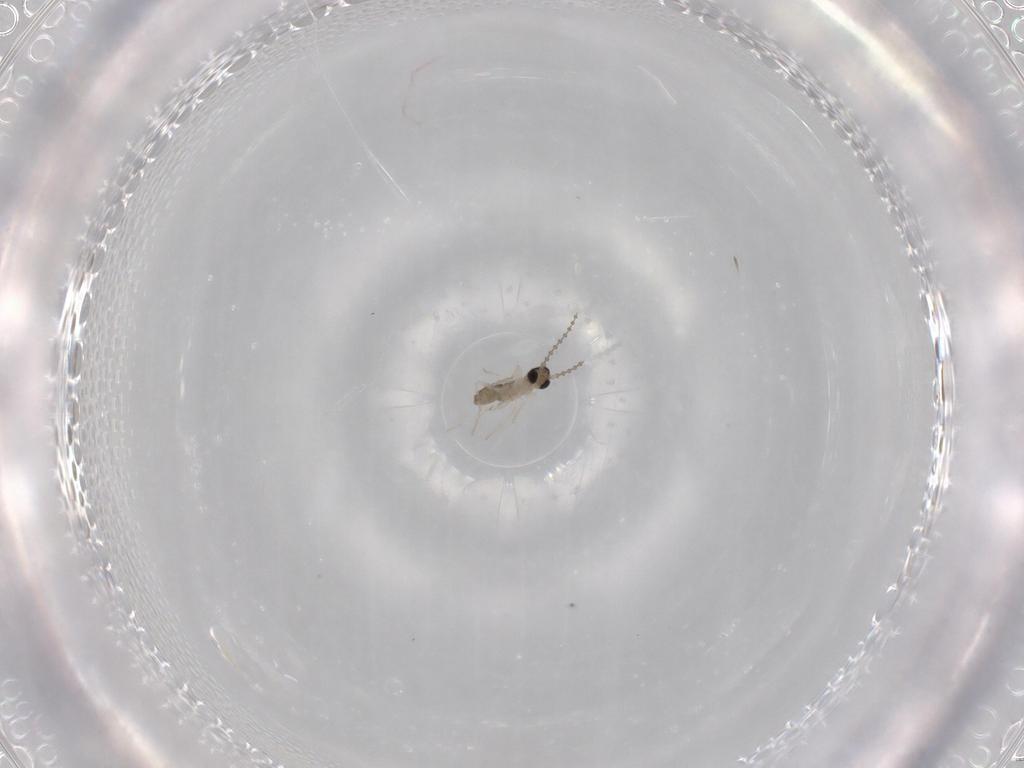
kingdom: Animalia
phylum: Arthropoda
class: Insecta
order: Diptera
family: Cecidomyiidae
